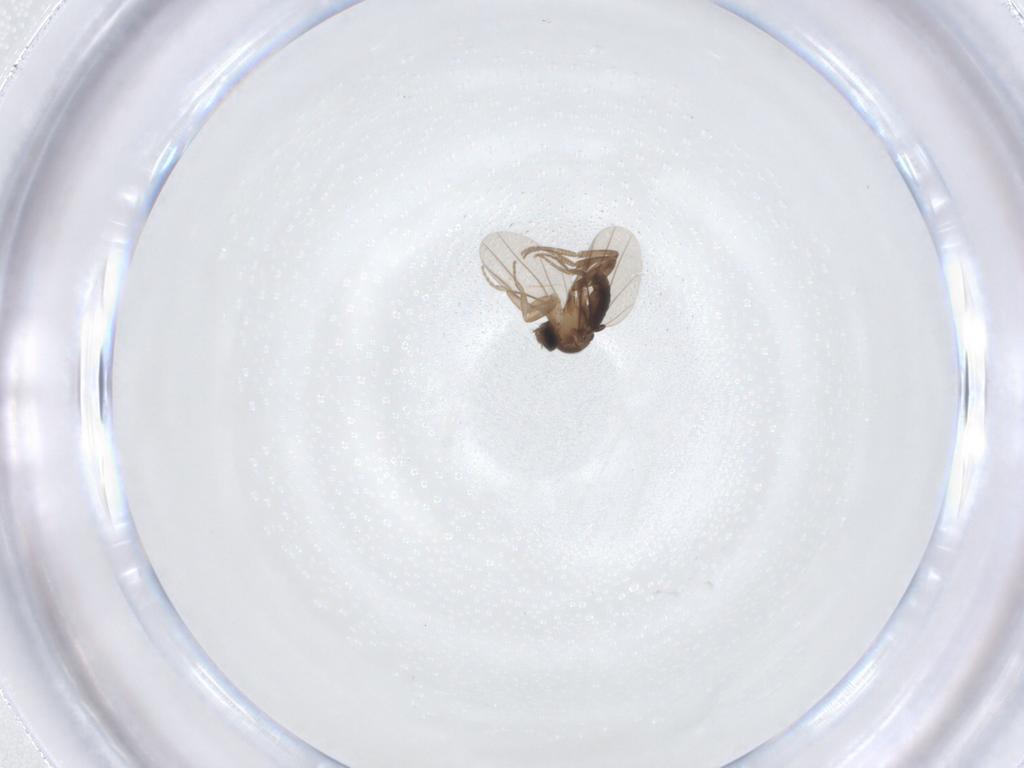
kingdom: Animalia
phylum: Arthropoda
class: Insecta
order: Diptera
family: Phoridae
